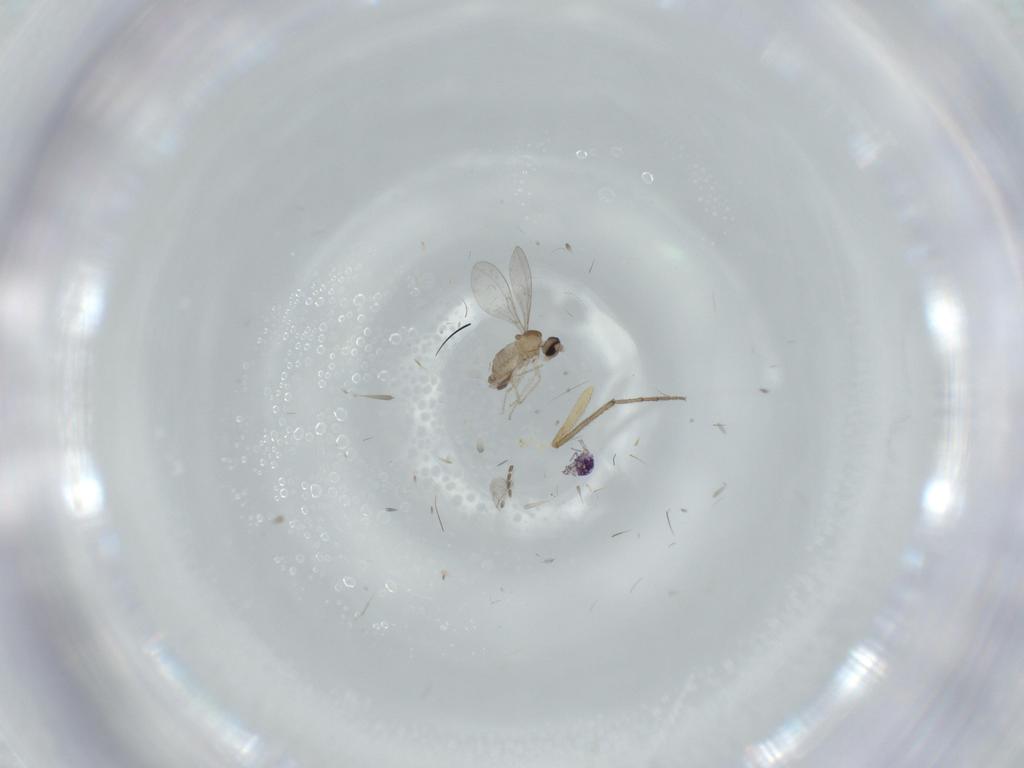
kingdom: Animalia
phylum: Arthropoda
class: Insecta
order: Diptera
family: Cecidomyiidae
